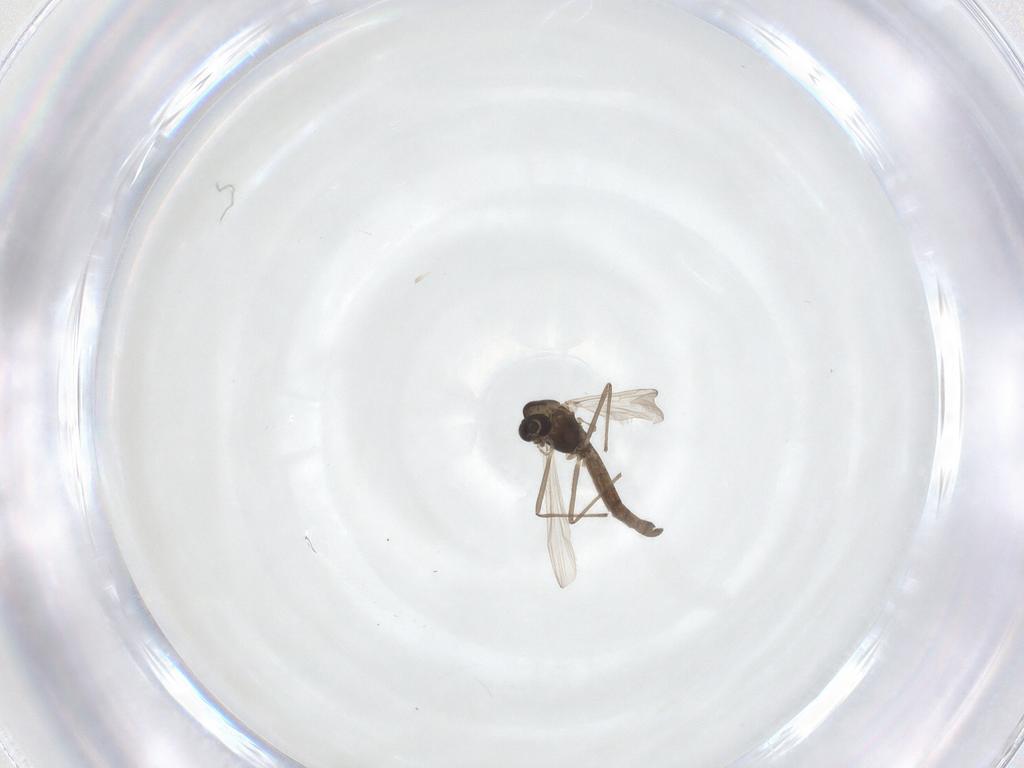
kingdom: Animalia
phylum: Arthropoda
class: Insecta
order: Diptera
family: Chironomidae
